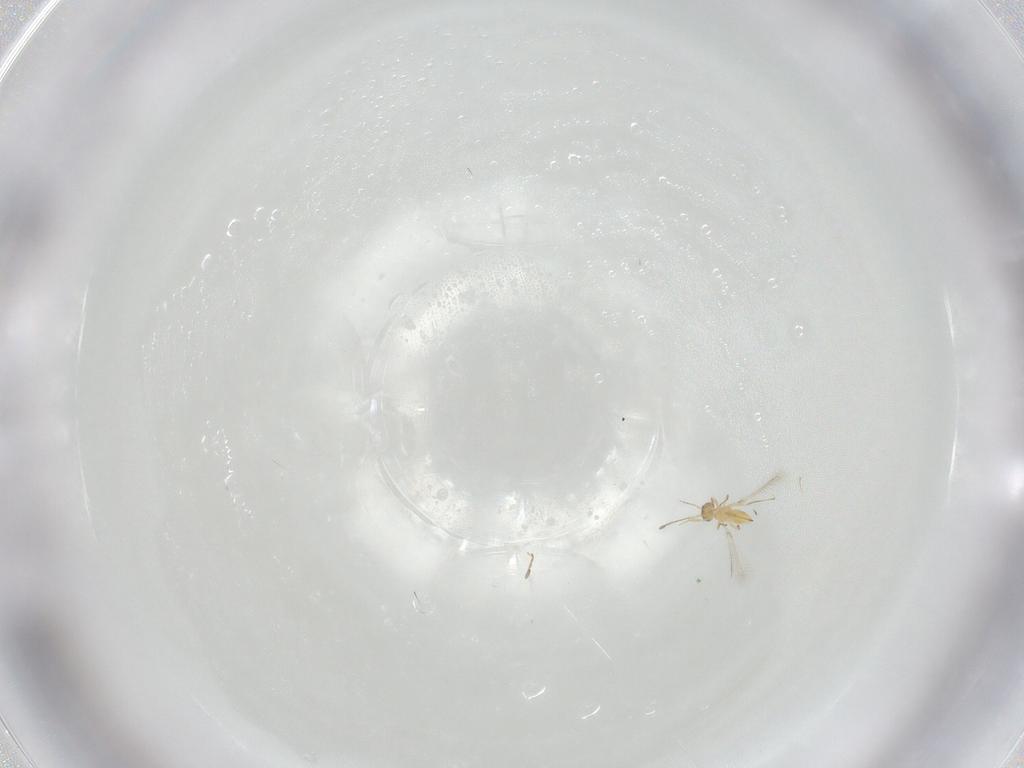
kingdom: Animalia
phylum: Arthropoda
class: Insecta
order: Hymenoptera
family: Mymaridae
